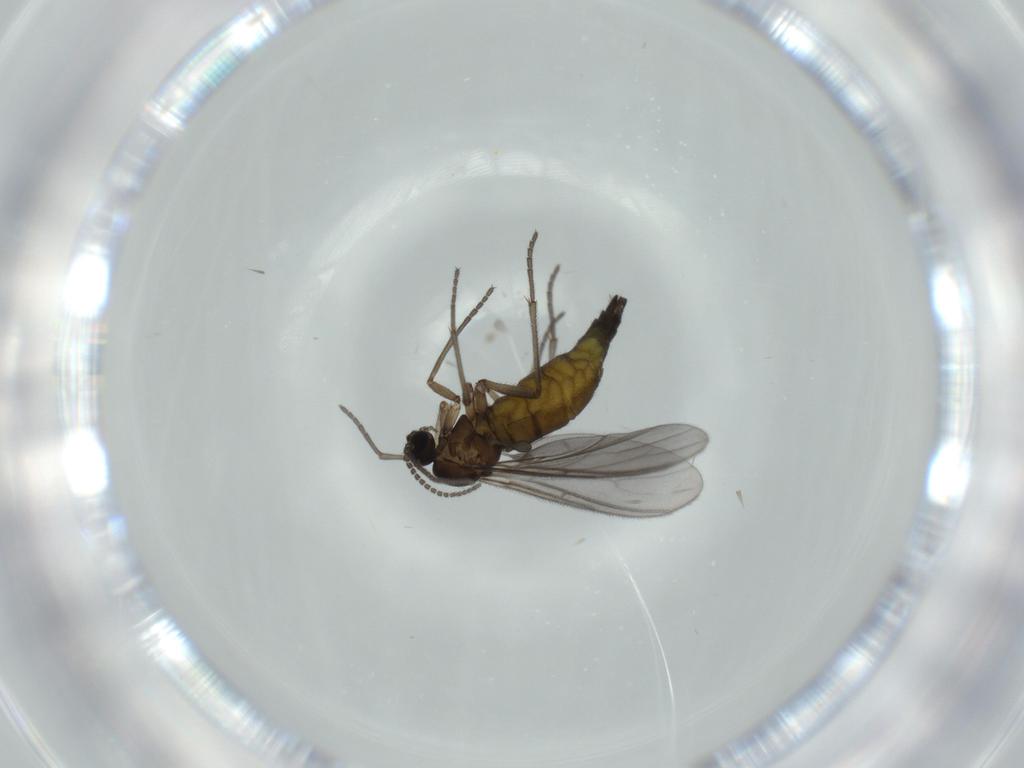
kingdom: Animalia
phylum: Arthropoda
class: Insecta
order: Diptera
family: Sciaridae
